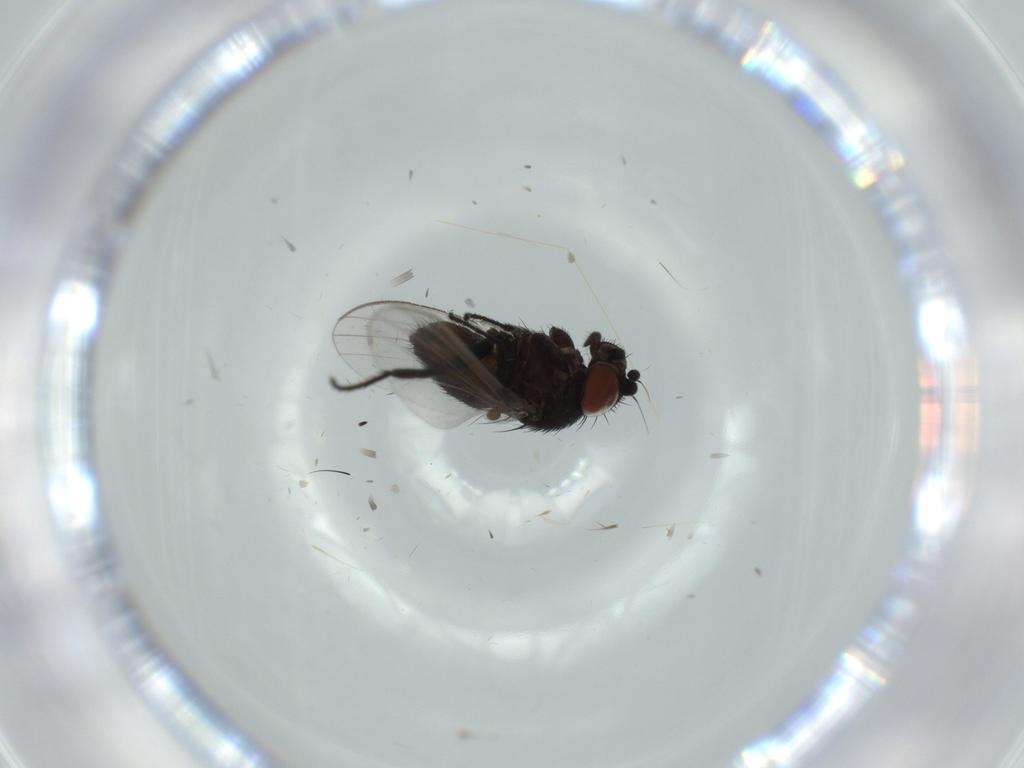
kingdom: Animalia
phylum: Arthropoda
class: Insecta
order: Diptera
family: Milichiidae
